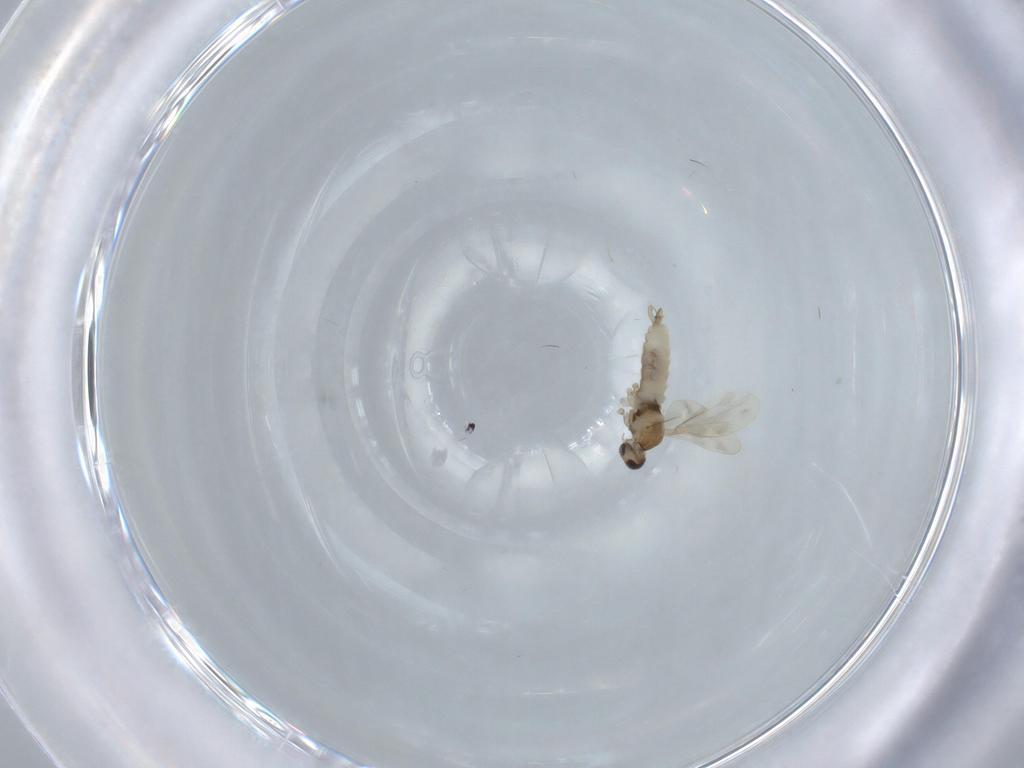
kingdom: Animalia
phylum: Arthropoda
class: Insecta
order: Diptera
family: Cecidomyiidae
